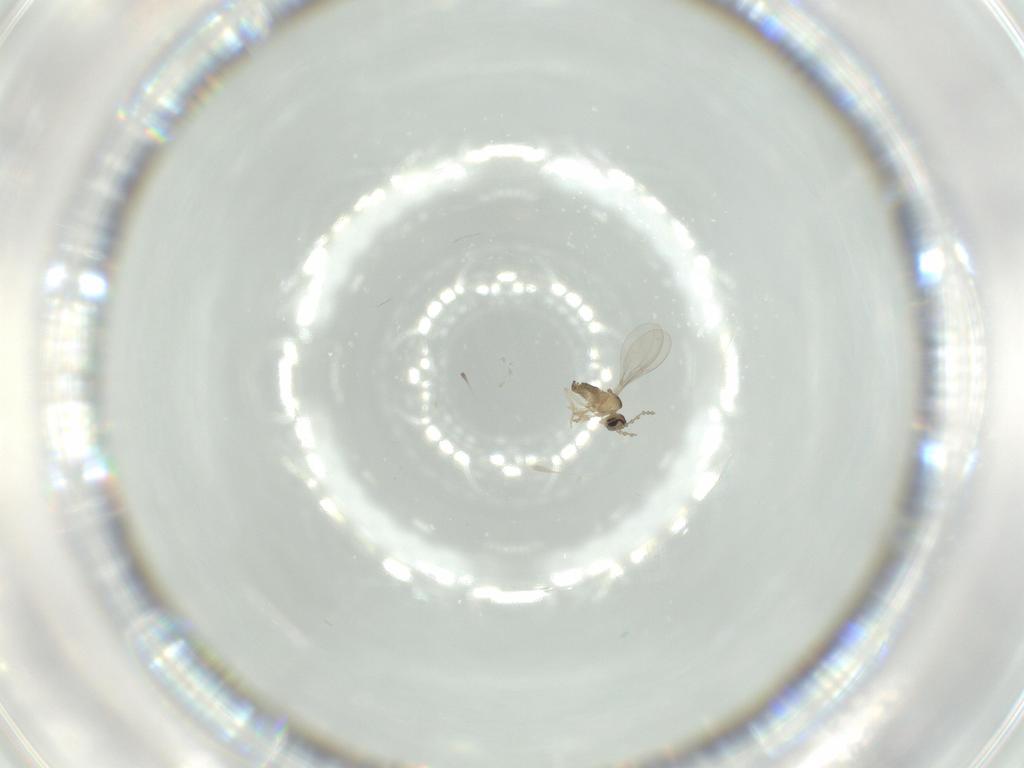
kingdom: Animalia
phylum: Arthropoda
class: Insecta
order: Diptera
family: Cecidomyiidae
